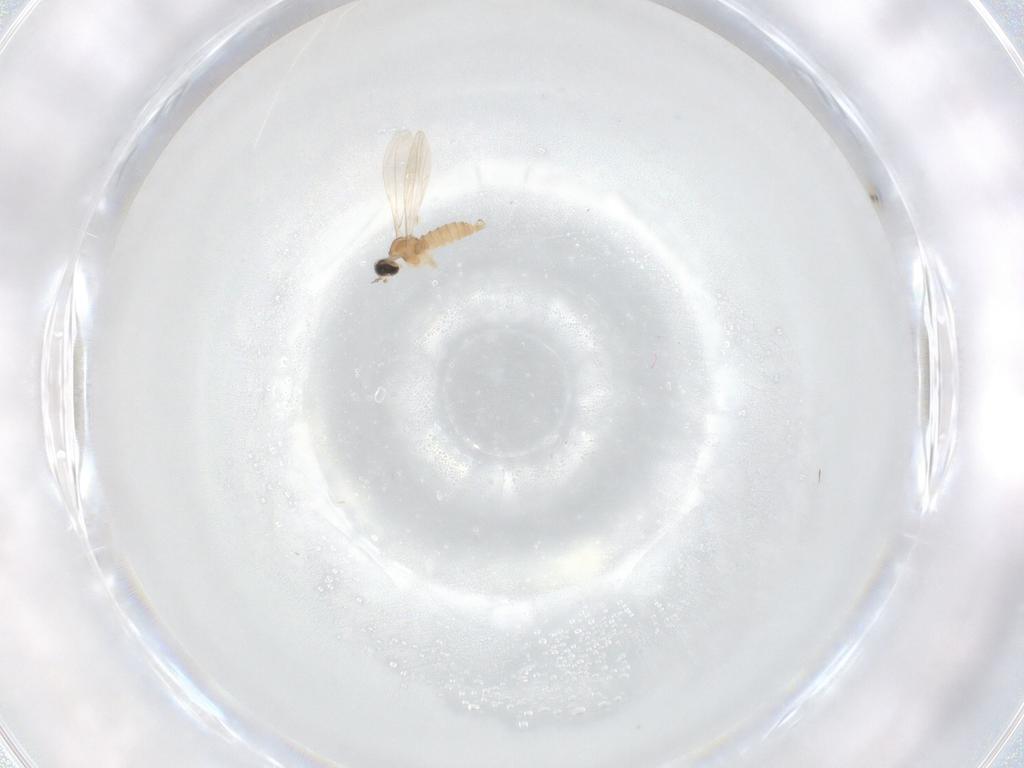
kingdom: Animalia
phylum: Arthropoda
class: Insecta
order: Diptera
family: Cecidomyiidae
